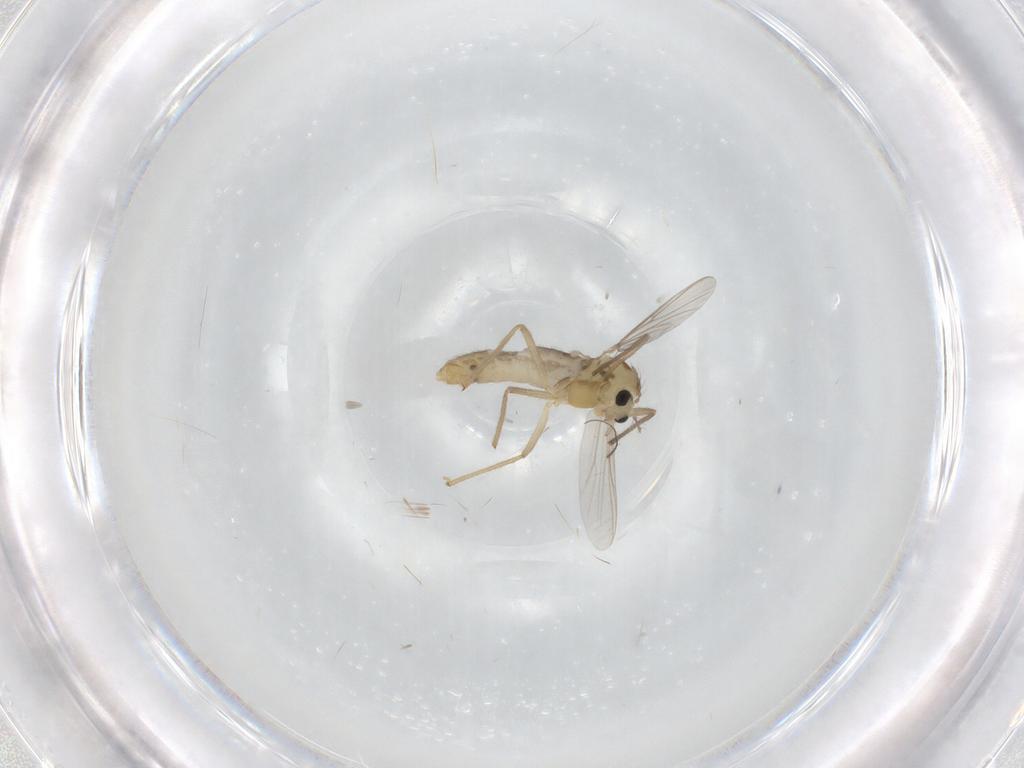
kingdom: Animalia
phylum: Arthropoda
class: Insecta
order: Diptera
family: Chironomidae
